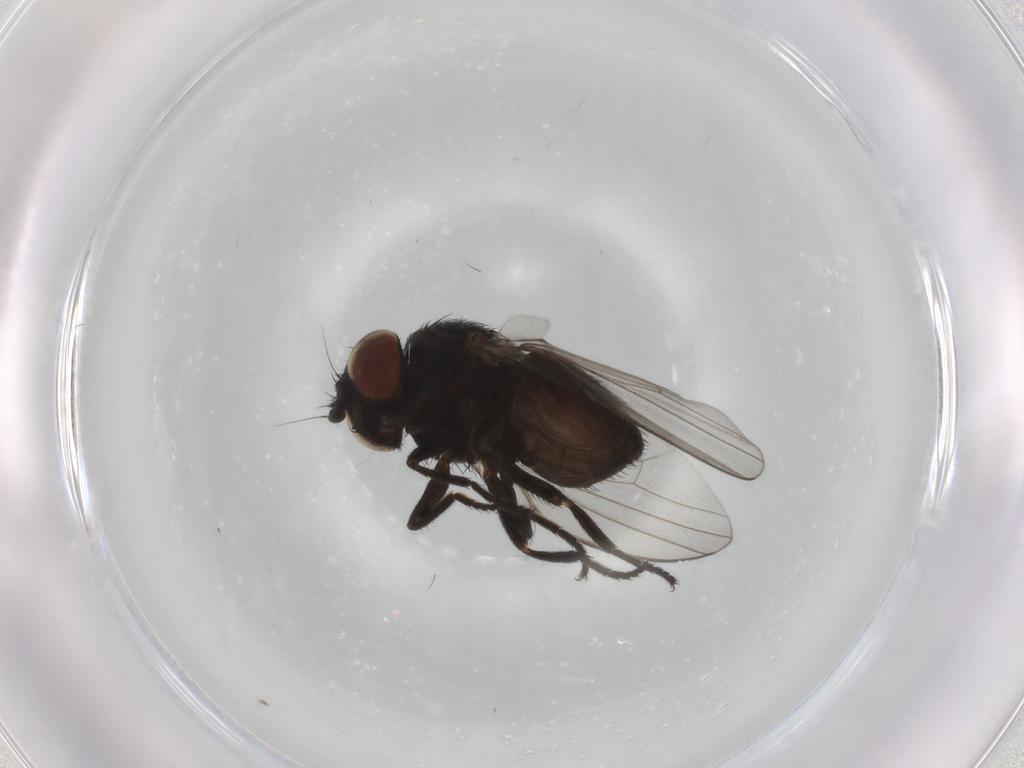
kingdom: Animalia
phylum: Arthropoda
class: Insecta
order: Diptera
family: Milichiidae
